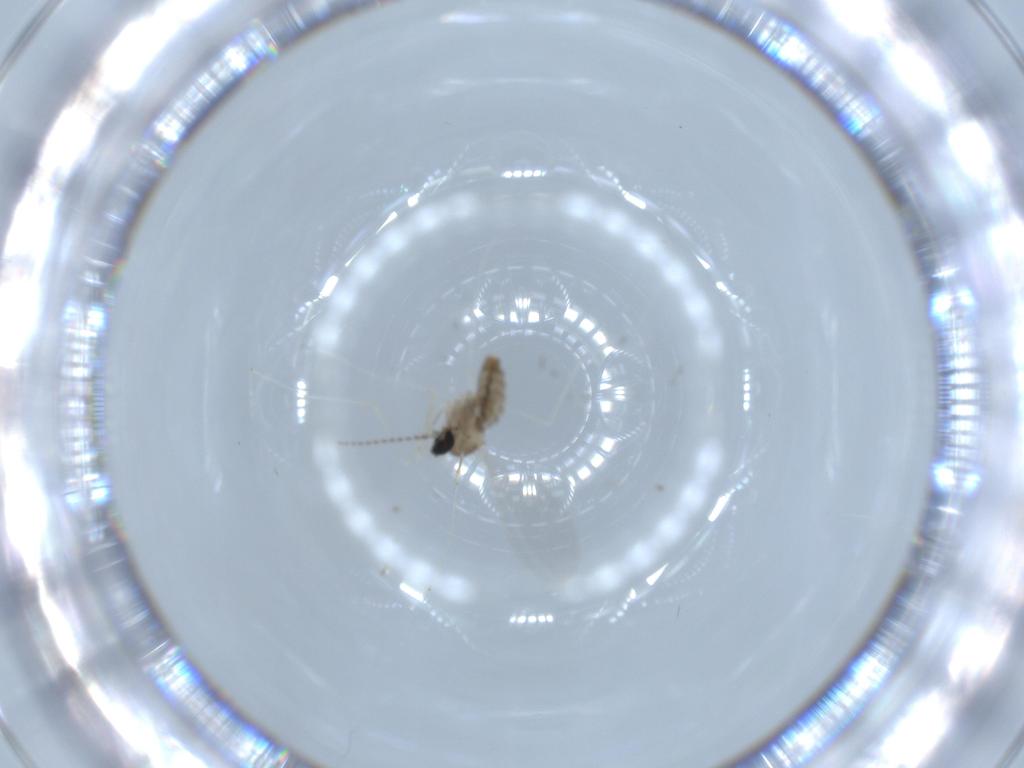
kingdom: Animalia
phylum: Arthropoda
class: Insecta
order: Diptera
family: Cecidomyiidae
